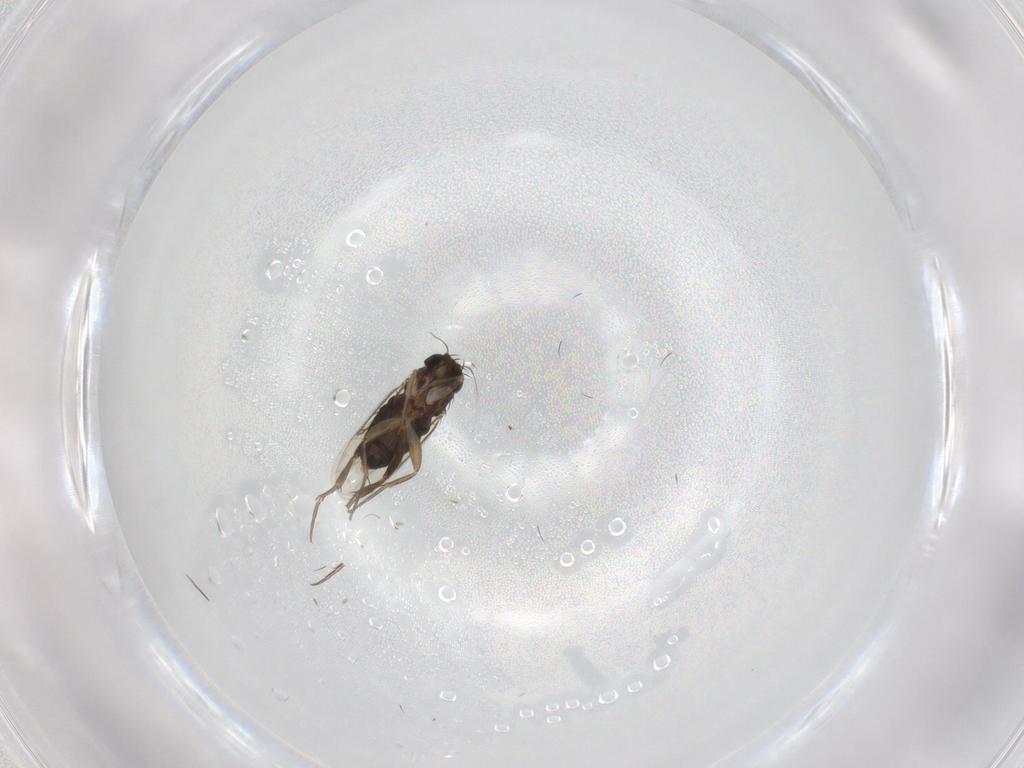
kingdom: Animalia
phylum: Arthropoda
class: Insecta
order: Diptera
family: Phoridae
